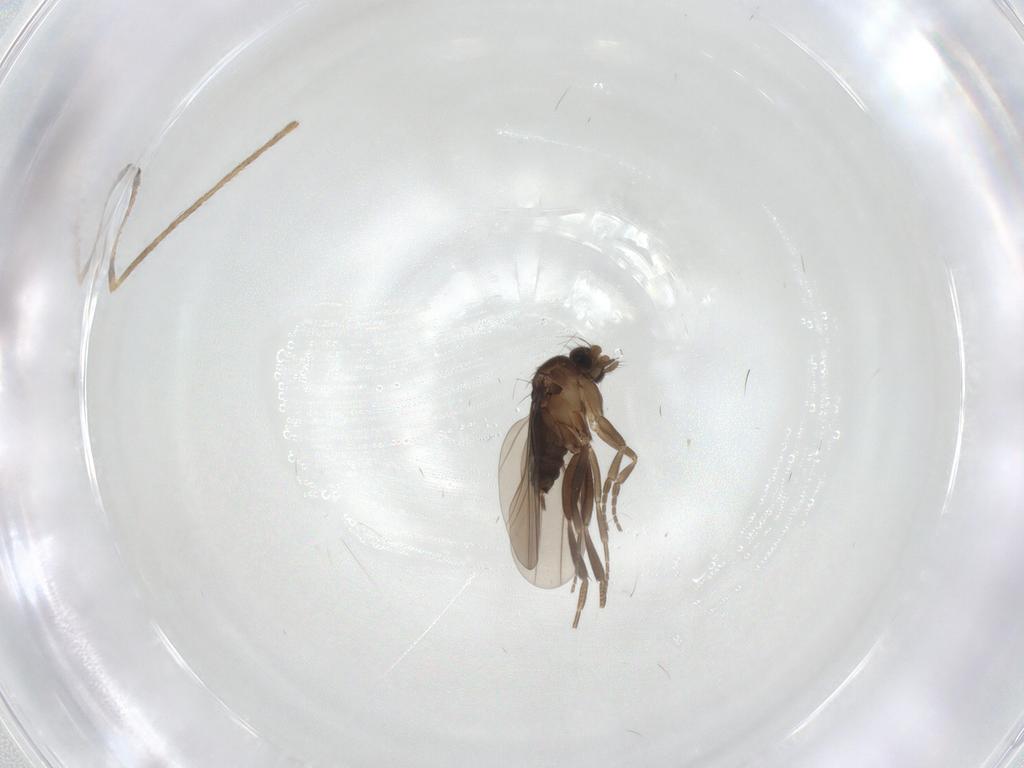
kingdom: Animalia
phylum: Arthropoda
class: Insecta
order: Diptera
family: Phoridae
